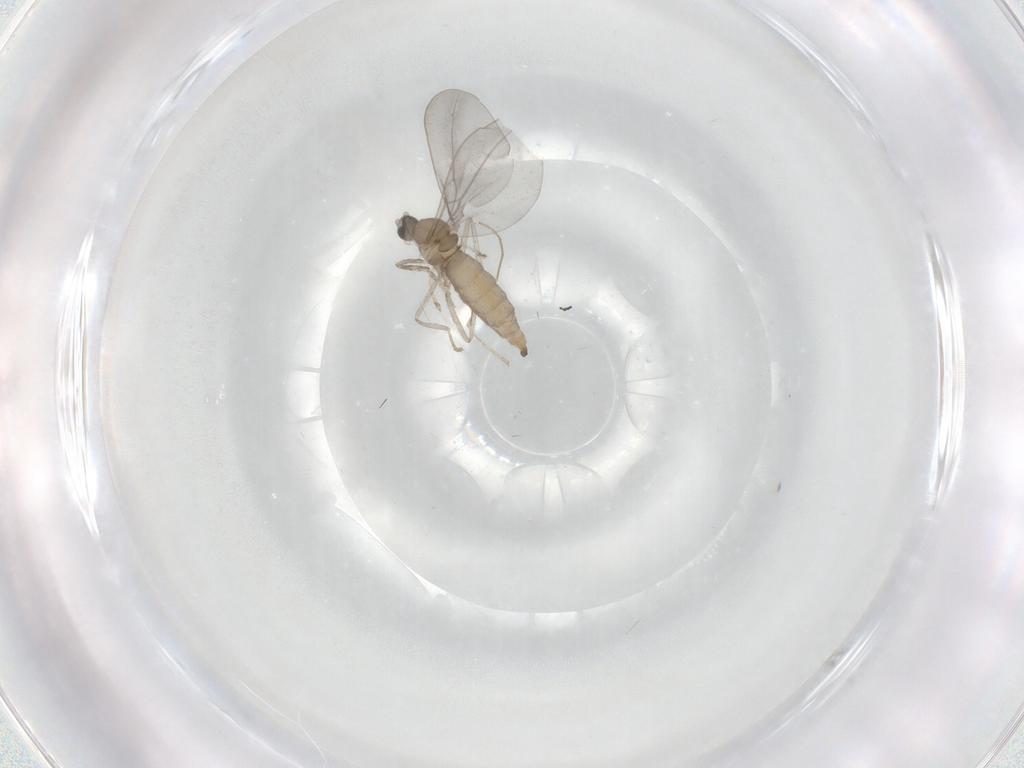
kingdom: Animalia
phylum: Arthropoda
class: Insecta
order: Diptera
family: Cecidomyiidae
